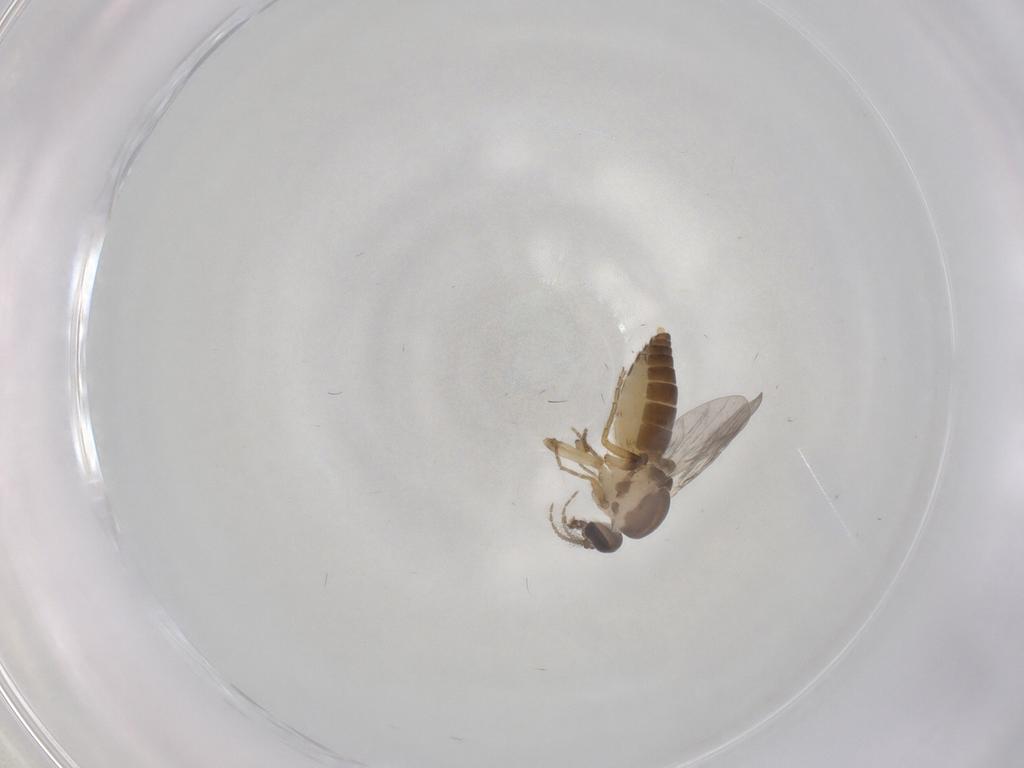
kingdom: Animalia
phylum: Arthropoda
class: Insecta
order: Diptera
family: Ceratopogonidae
